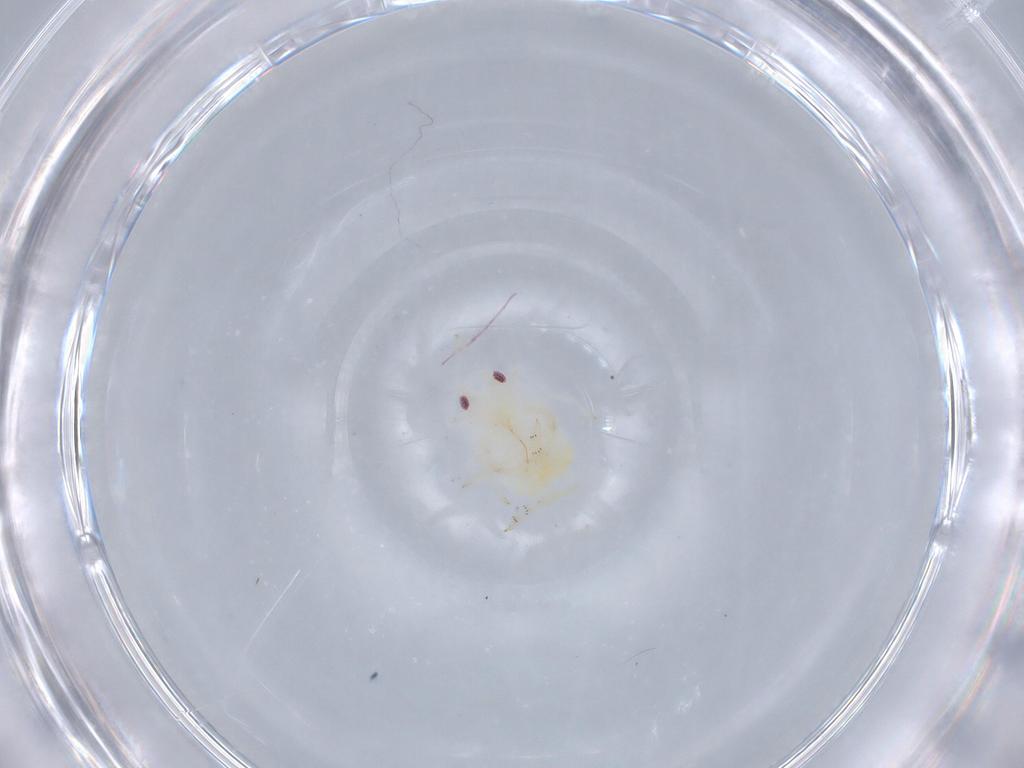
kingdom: Animalia
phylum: Arthropoda
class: Insecta
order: Hemiptera
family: Flatidae
